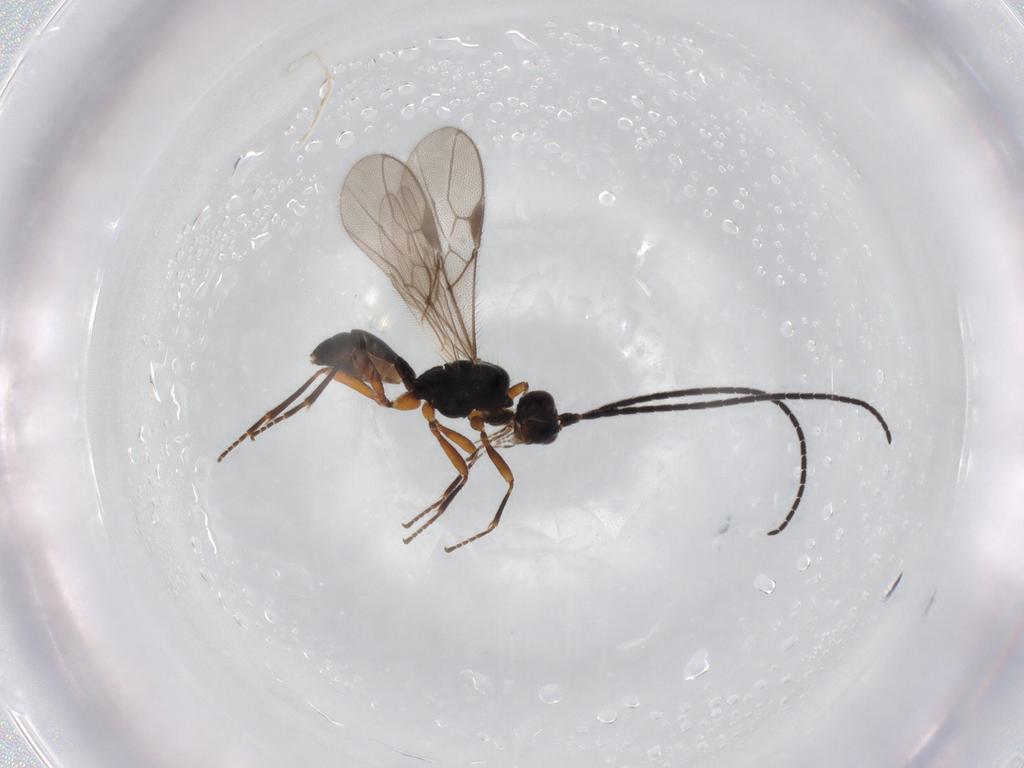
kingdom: Animalia
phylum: Arthropoda
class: Insecta
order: Hymenoptera
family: Braconidae
